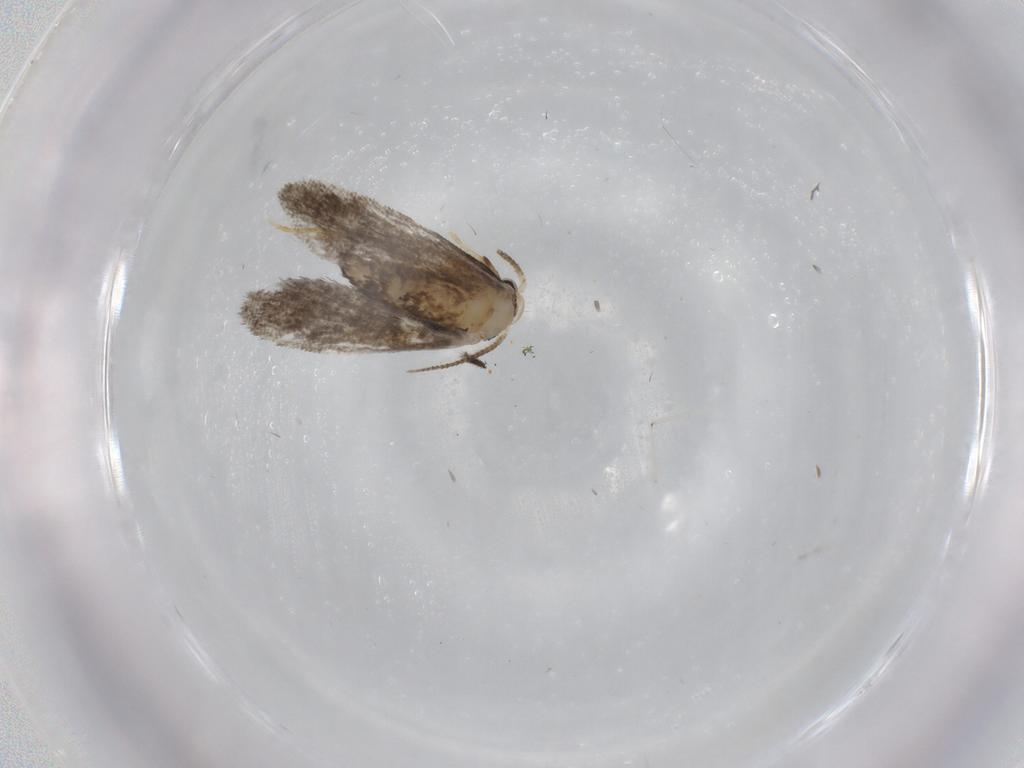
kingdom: Animalia
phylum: Arthropoda
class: Insecta
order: Lepidoptera
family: Psychidae
